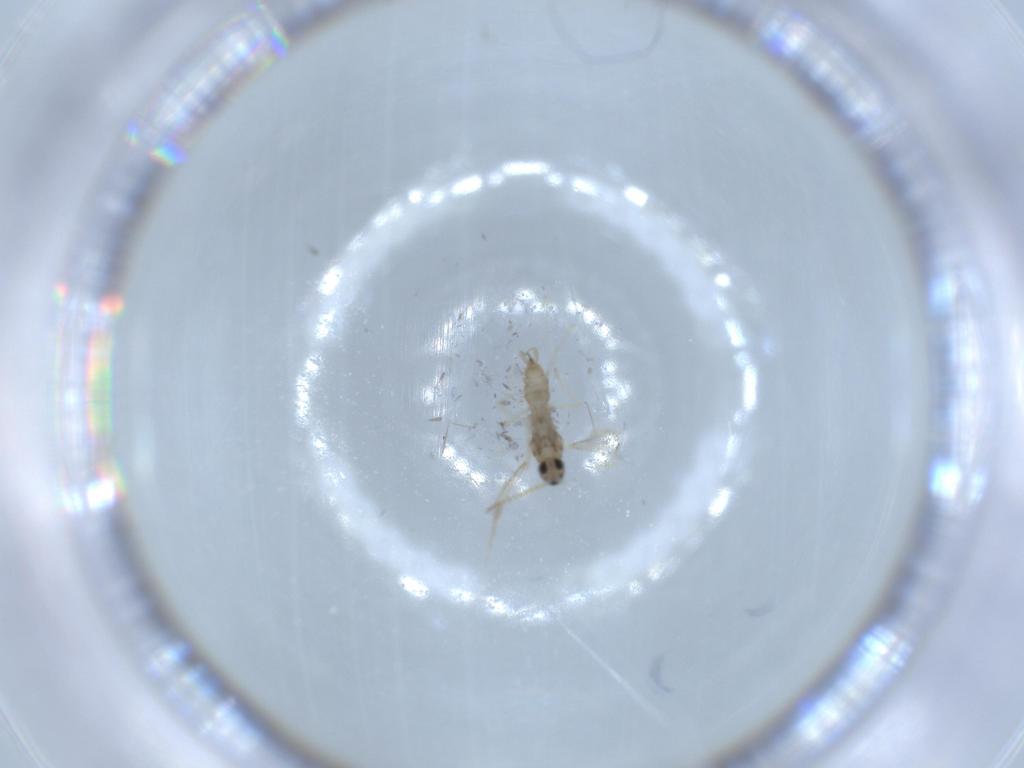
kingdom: Animalia
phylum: Arthropoda
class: Insecta
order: Diptera
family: Cecidomyiidae
